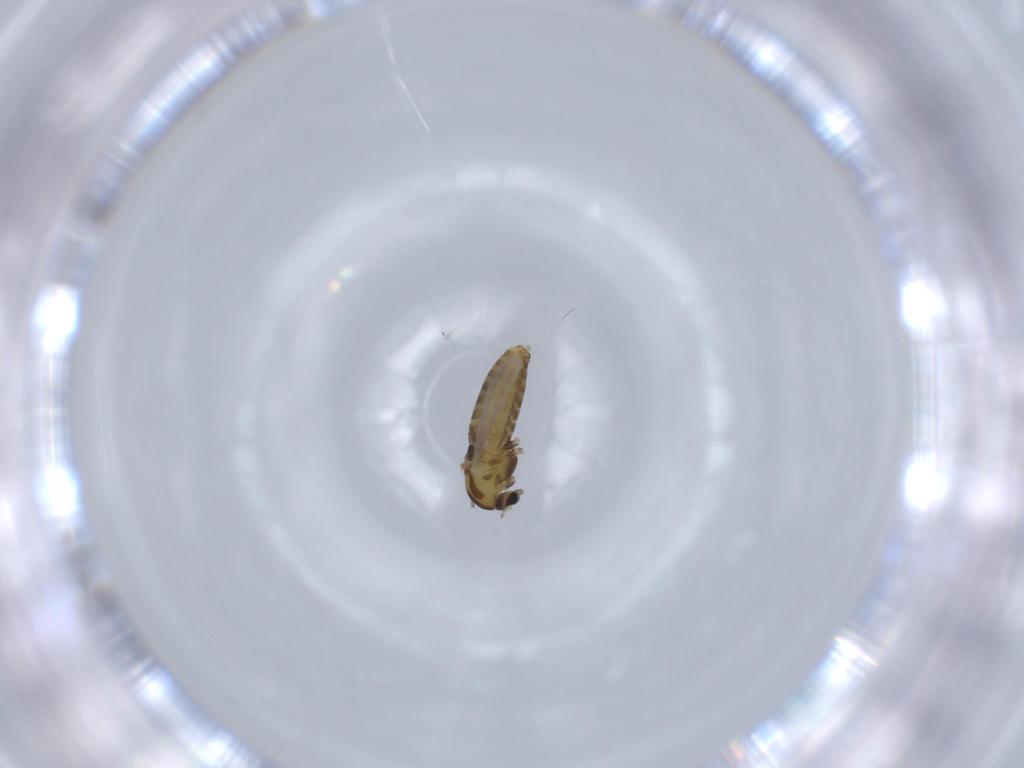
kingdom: Animalia
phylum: Arthropoda
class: Insecta
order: Diptera
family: Chironomidae
